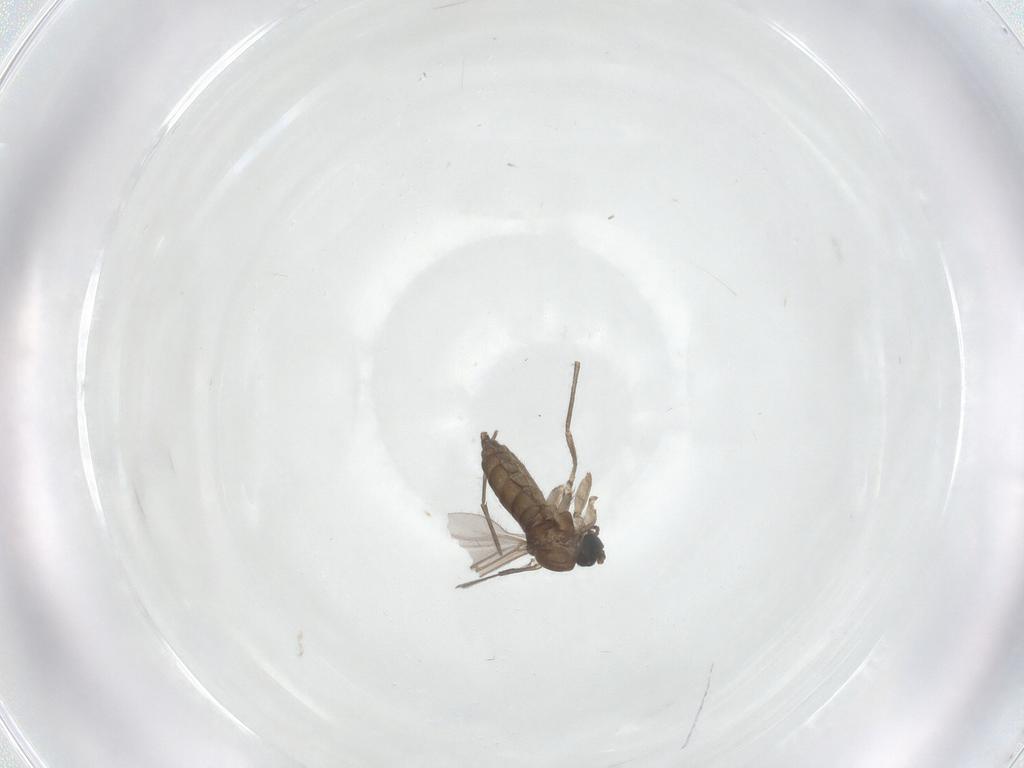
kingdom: Animalia
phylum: Arthropoda
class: Insecta
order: Diptera
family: Sciaridae
